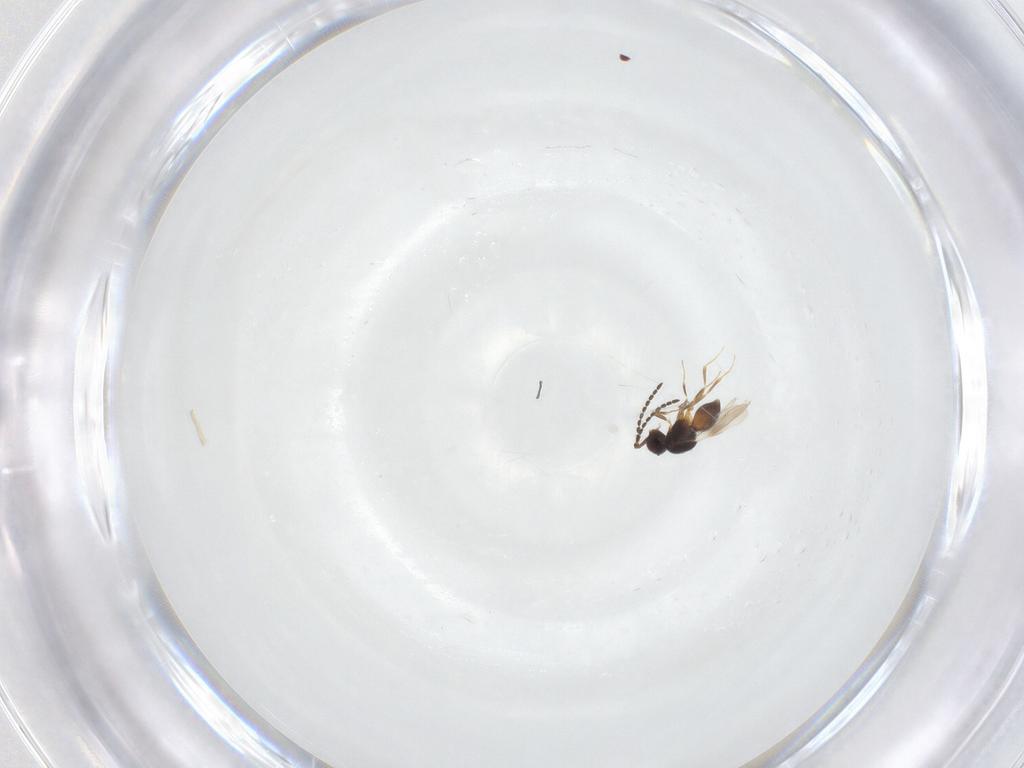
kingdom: Animalia
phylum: Arthropoda
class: Insecta
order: Hymenoptera
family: Ceraphronidae
